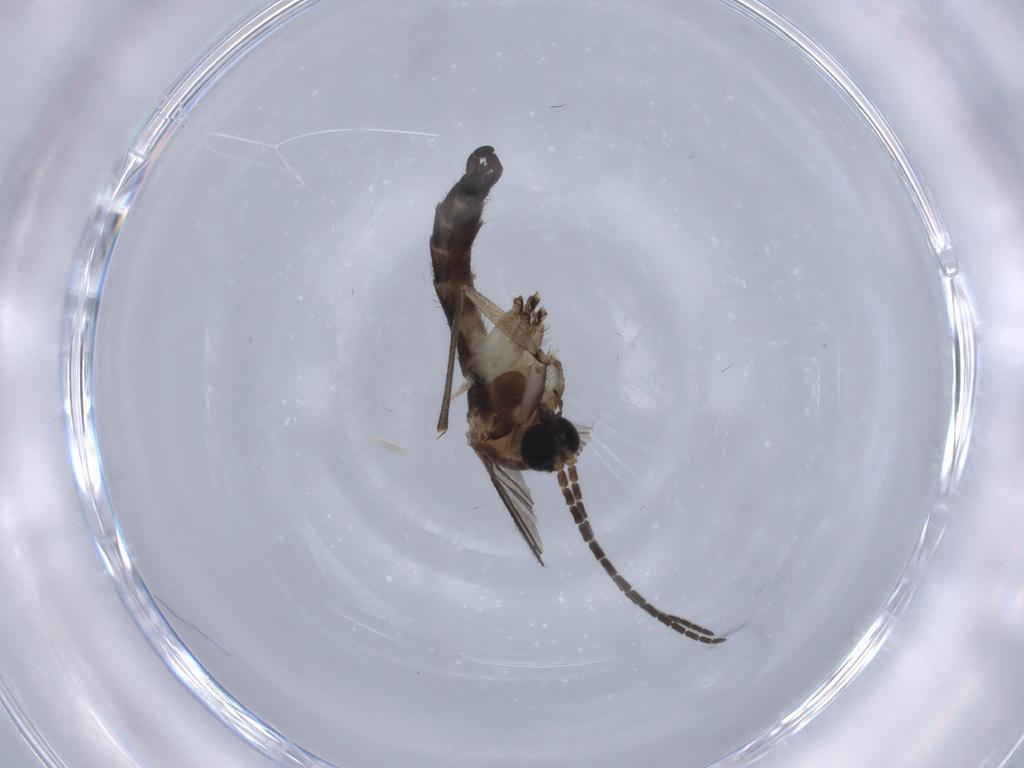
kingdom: Animalia
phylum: Arthropoda
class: Insecta
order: Diptera
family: Sciaridae
